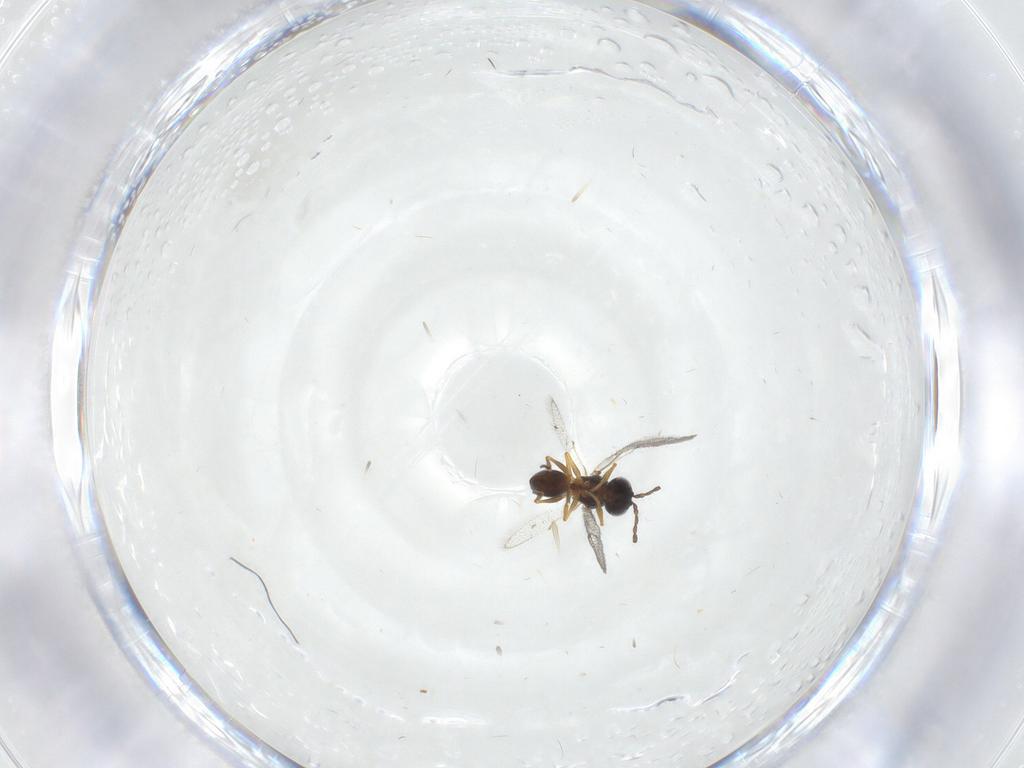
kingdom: Animalia
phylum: Arthropoda
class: Insecta
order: Hymenoptera
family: Figitidae
